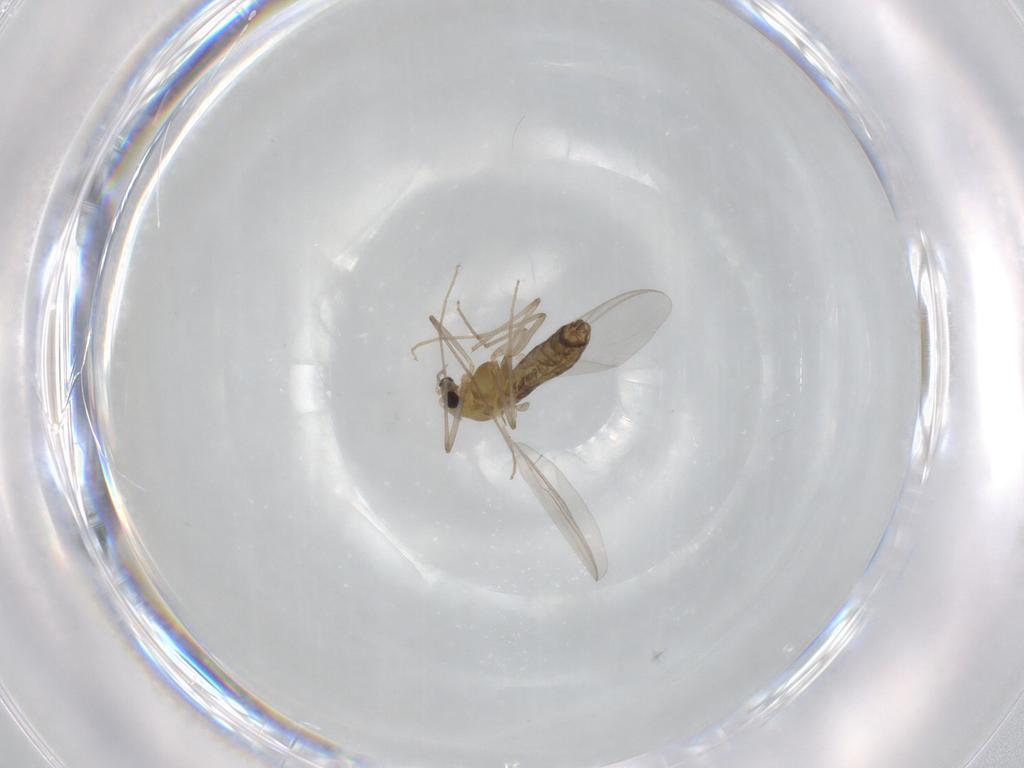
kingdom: Animalia
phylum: Arthropoda
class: Insecta
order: Diptera
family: Chironomidae
